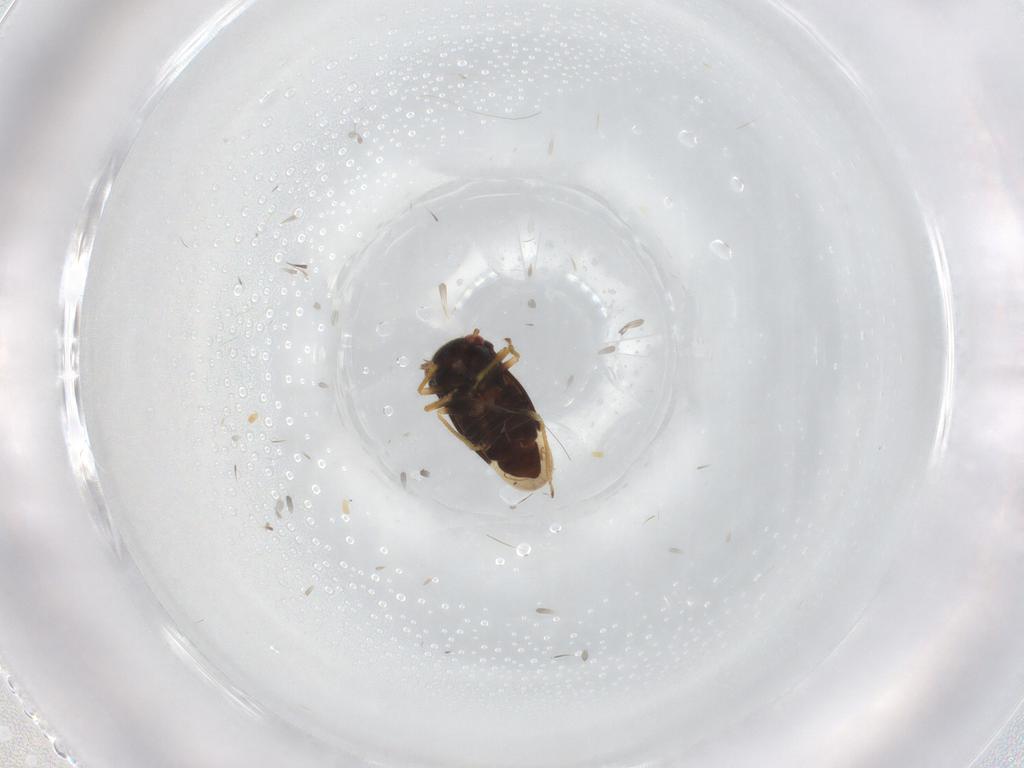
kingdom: Animalia
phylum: Arthropoda
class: Insecta
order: Hemiptera
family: Schizopteridae
